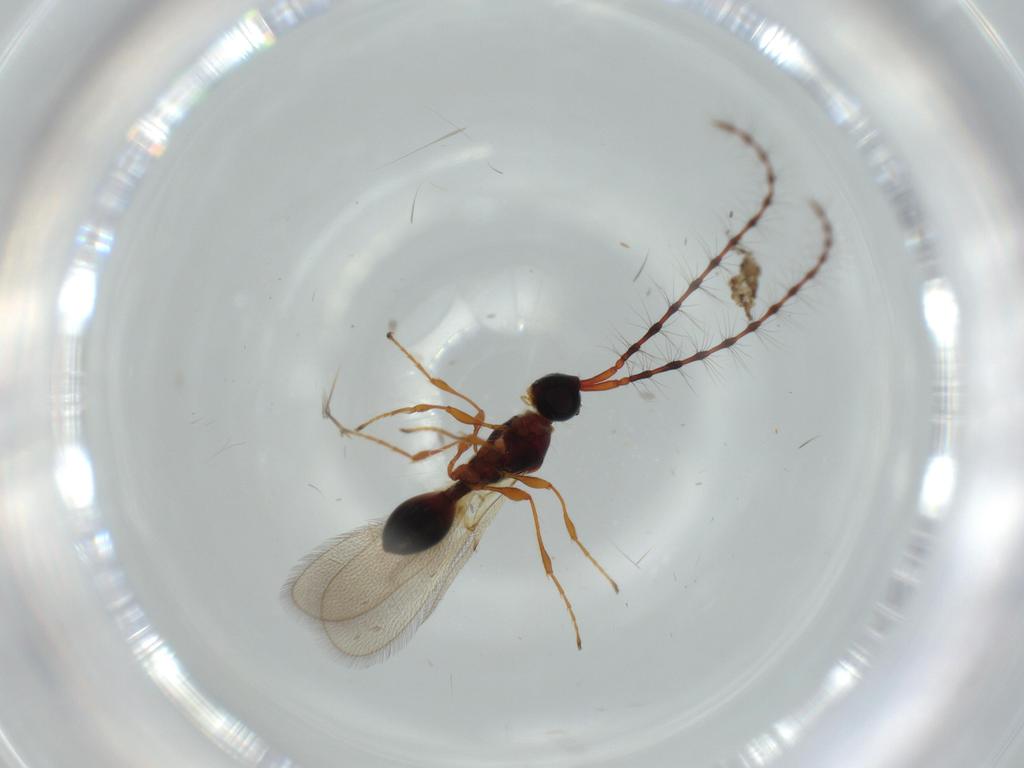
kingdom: Animalia
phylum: Arthropoda
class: Insecta
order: Hymenoptera
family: Diapriidae
